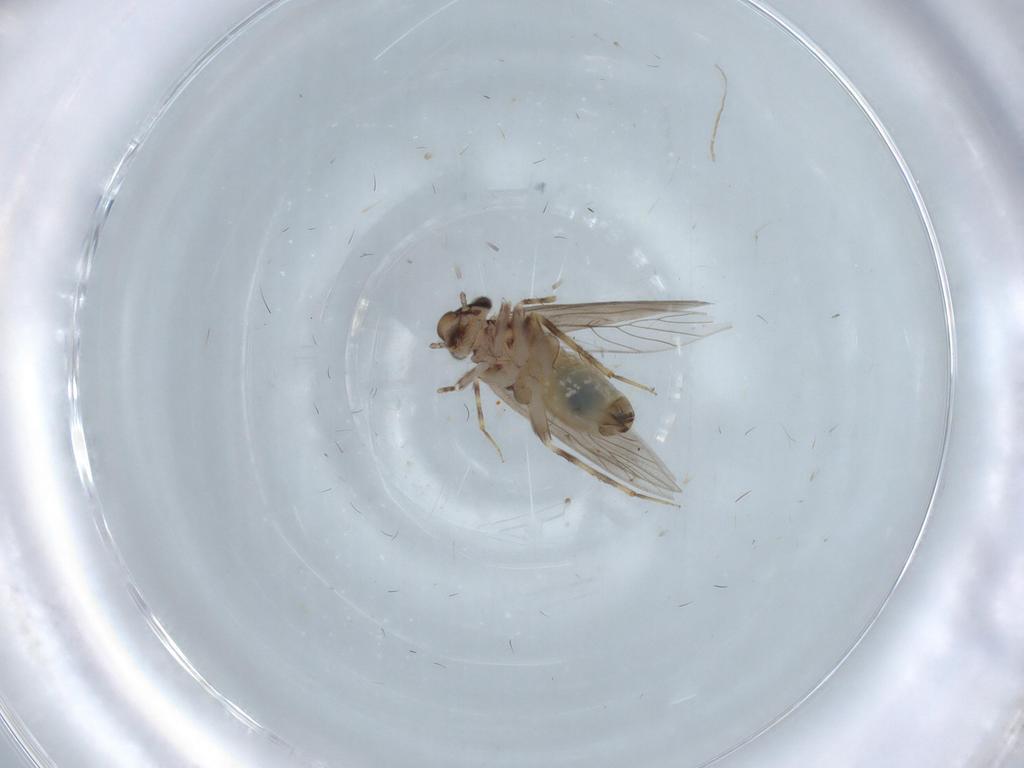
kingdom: Animalia
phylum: Arthropoda
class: Insecta
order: Psocodea
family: Lepidopsocidae
